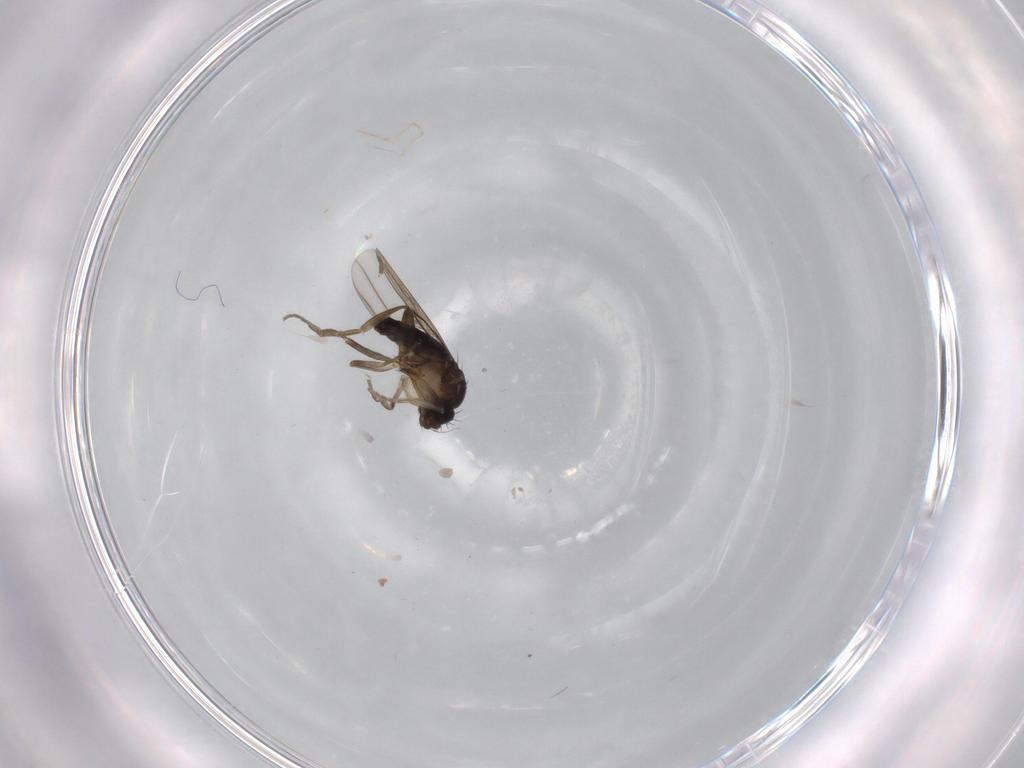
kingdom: Animalia
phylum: Arthropoda
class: Insecta
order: Diptera
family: Phoridae
